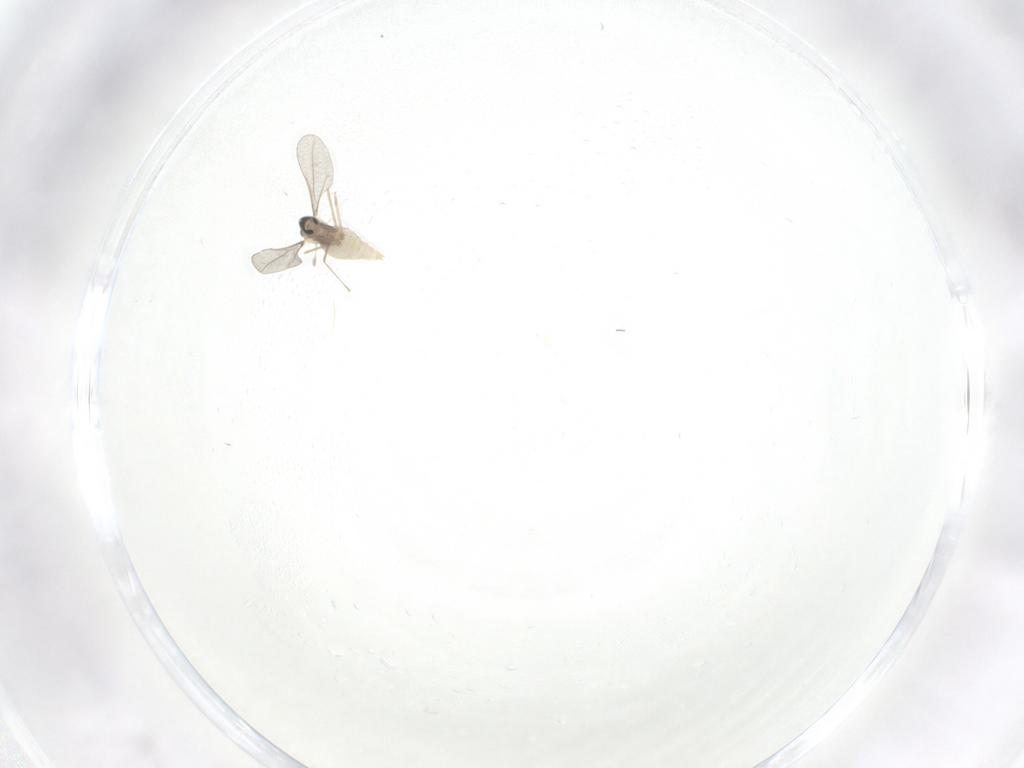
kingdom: Animalia
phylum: Arthropoda
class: Insecta
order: Diptera
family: Cecidomyiidae
